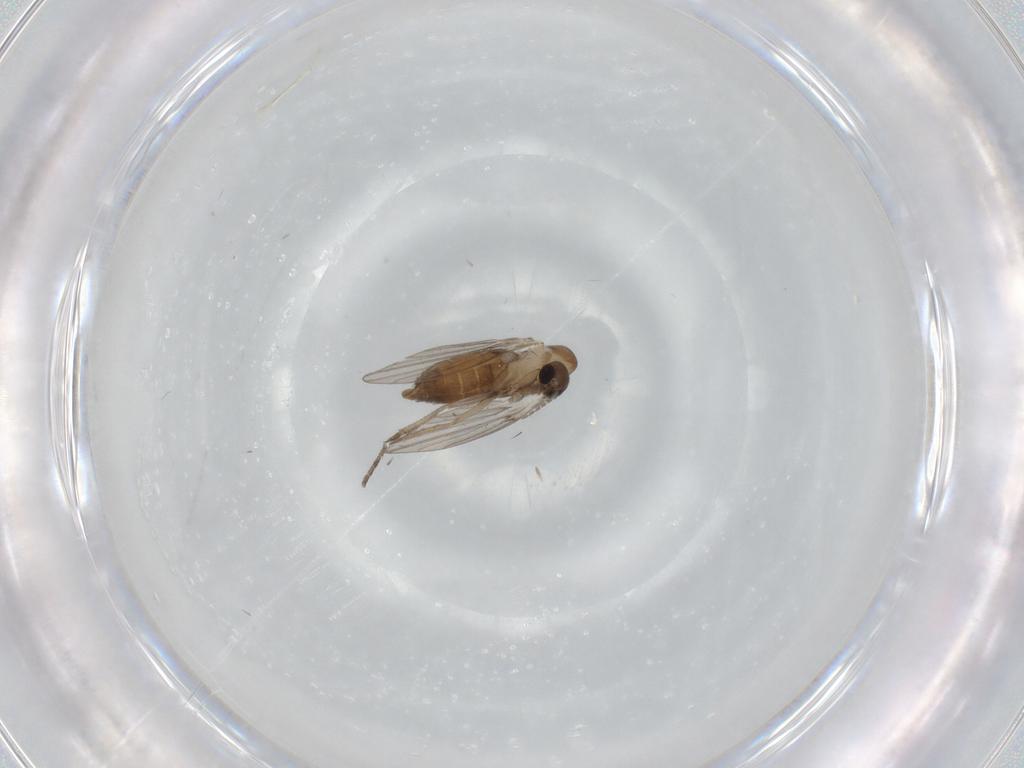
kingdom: Animalia
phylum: Arthropoda
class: Insecta
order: Diptera
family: Psychodidae
